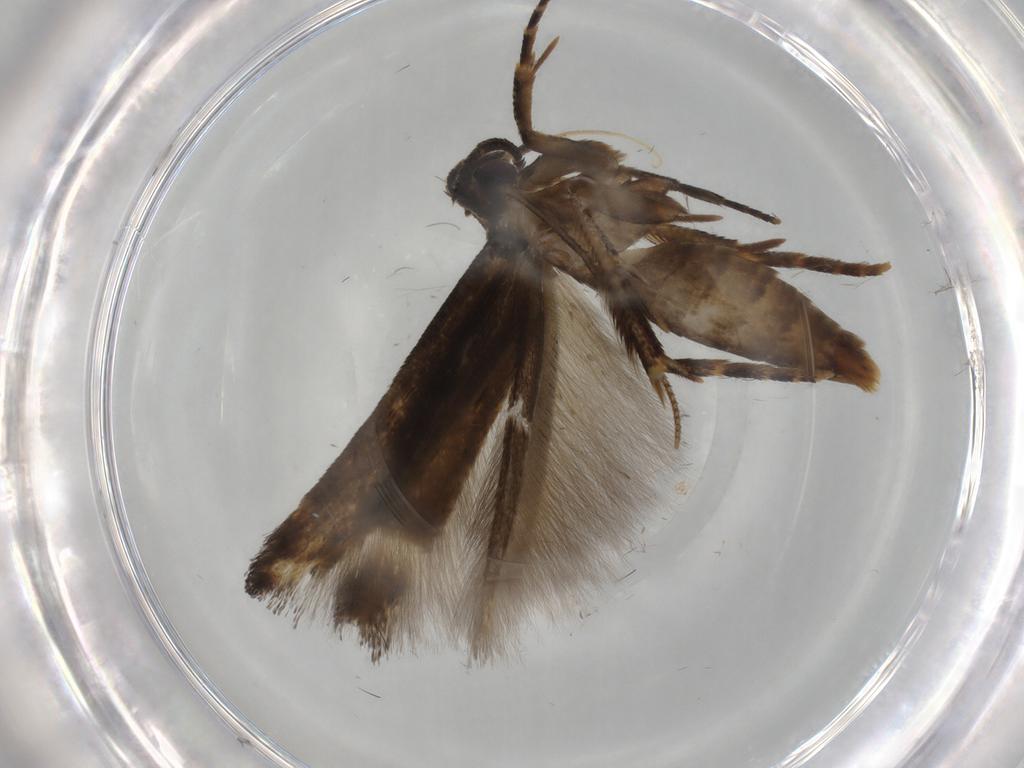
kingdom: Animalia
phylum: Arthropoda
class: Insecta
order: Lepidoptera
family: Cosmopterigidae
